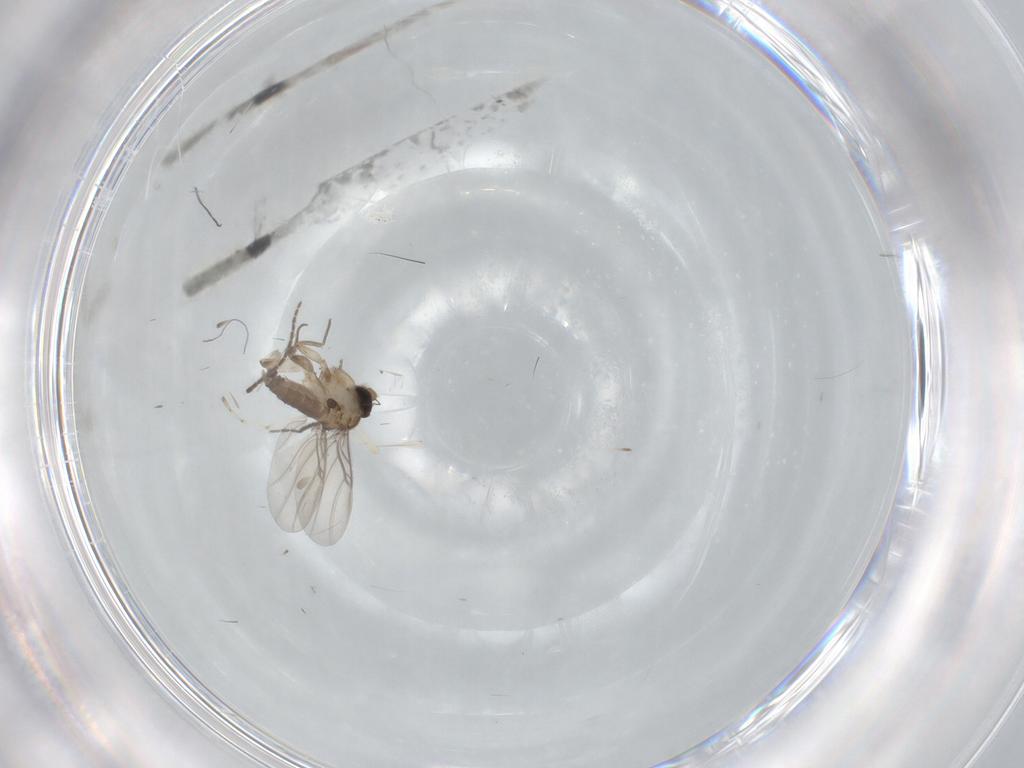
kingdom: Animalia
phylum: Arthropoda
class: Insecta
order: Diptera
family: Phoridae
